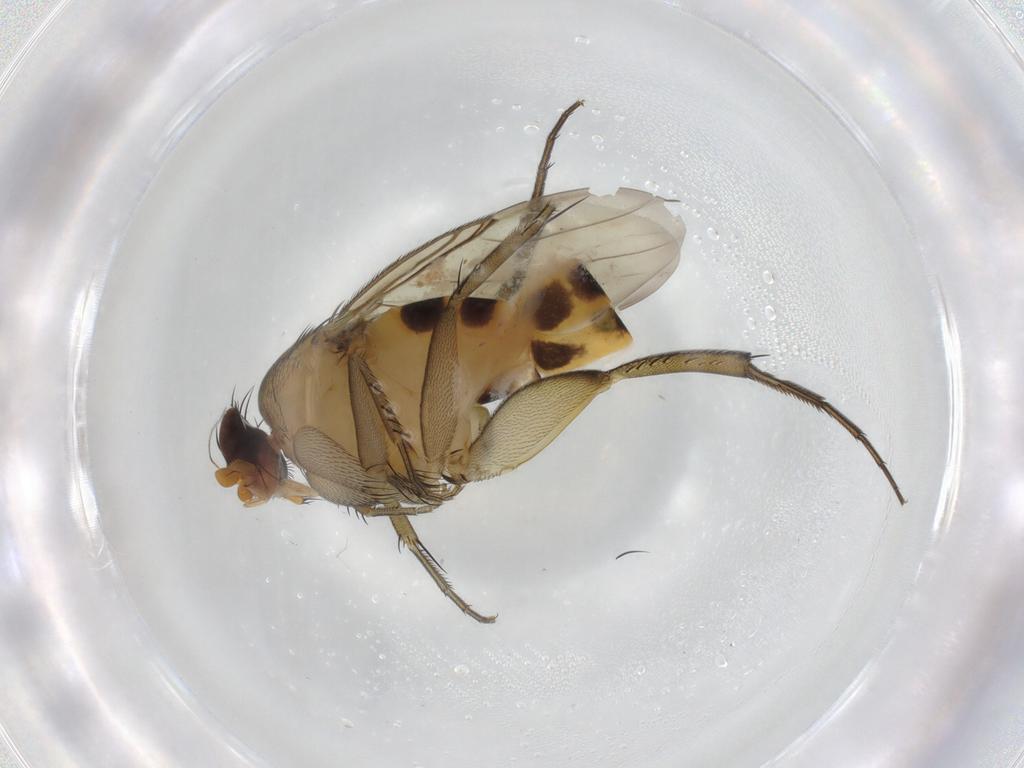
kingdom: Animalia
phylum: Arthropoda
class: Insecta
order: Diptera
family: Phoridae
